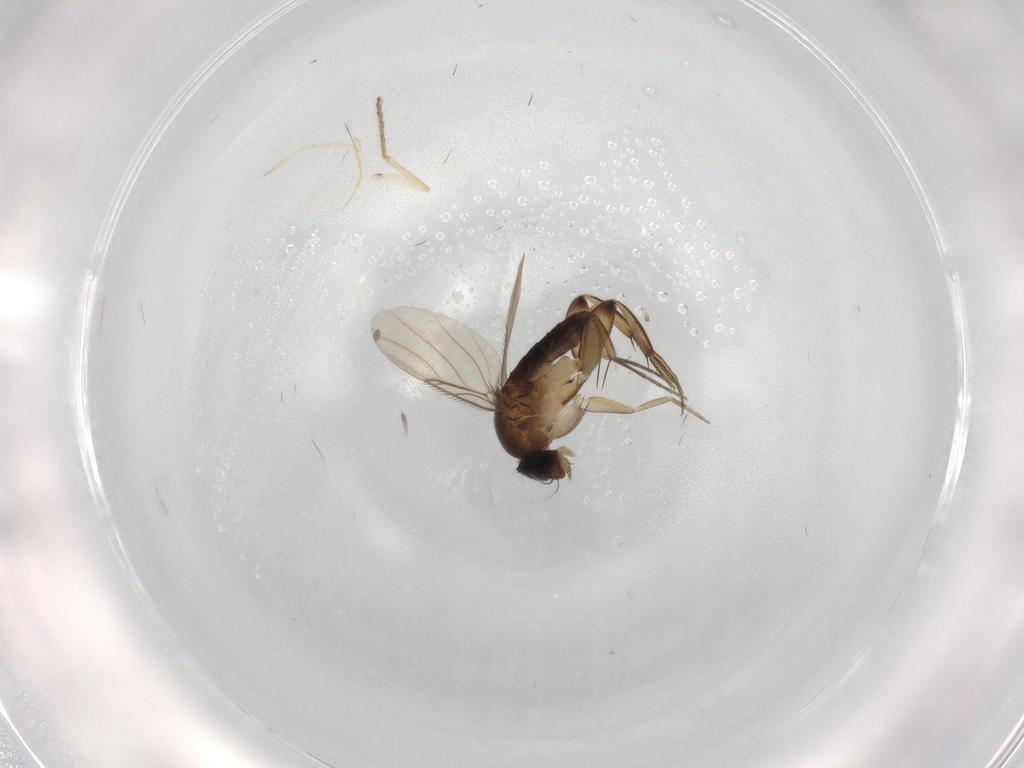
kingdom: Animalia
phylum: Arthropoda
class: Insecta
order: Diptera
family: Phoridae
